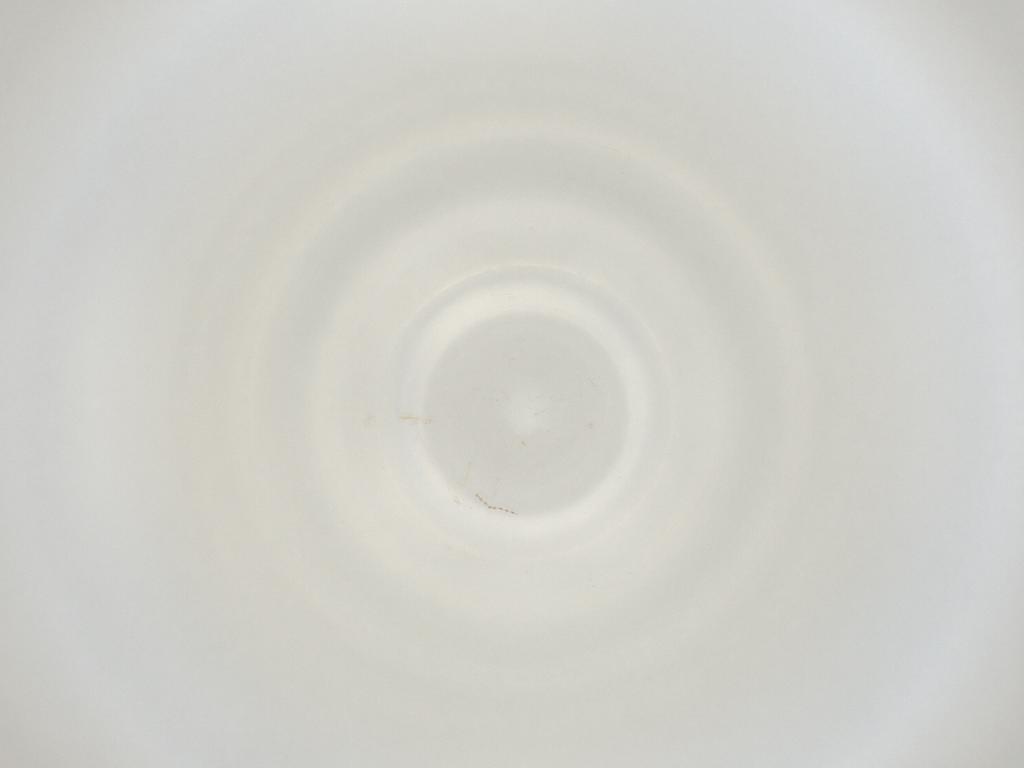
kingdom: Animalia
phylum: Arthropoda
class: Insecta
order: Diptera
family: Cecidomyiidae
